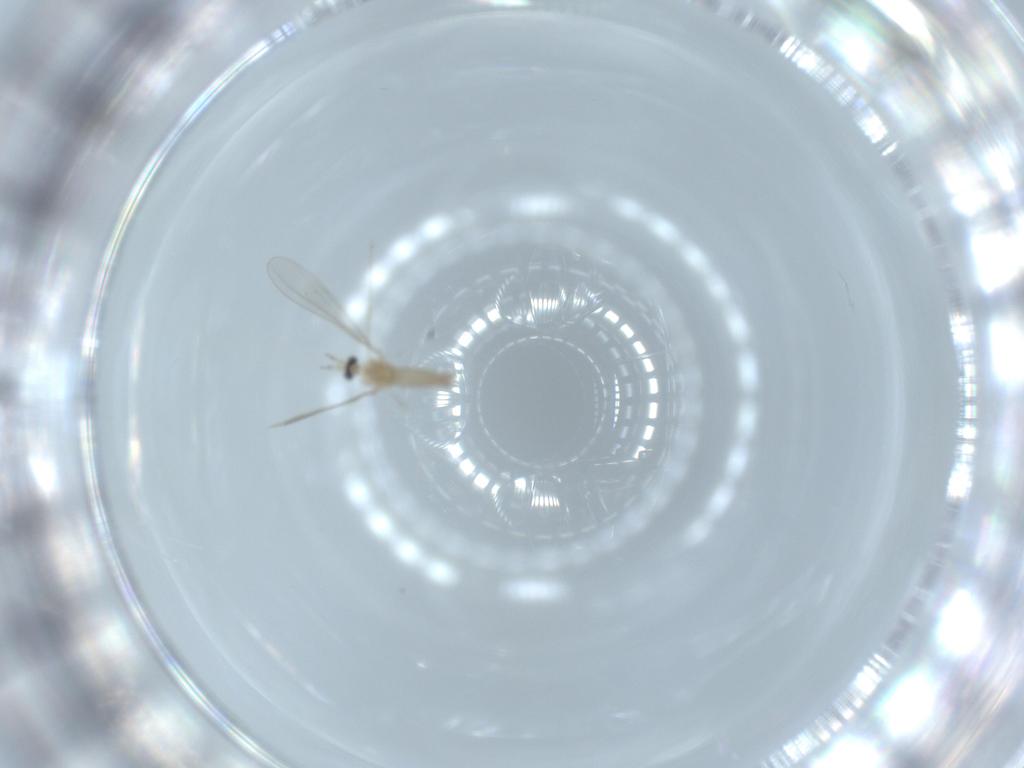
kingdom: Animalia
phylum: Arthropoda
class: Insecta
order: Diptera
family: Cecidomyiidae
